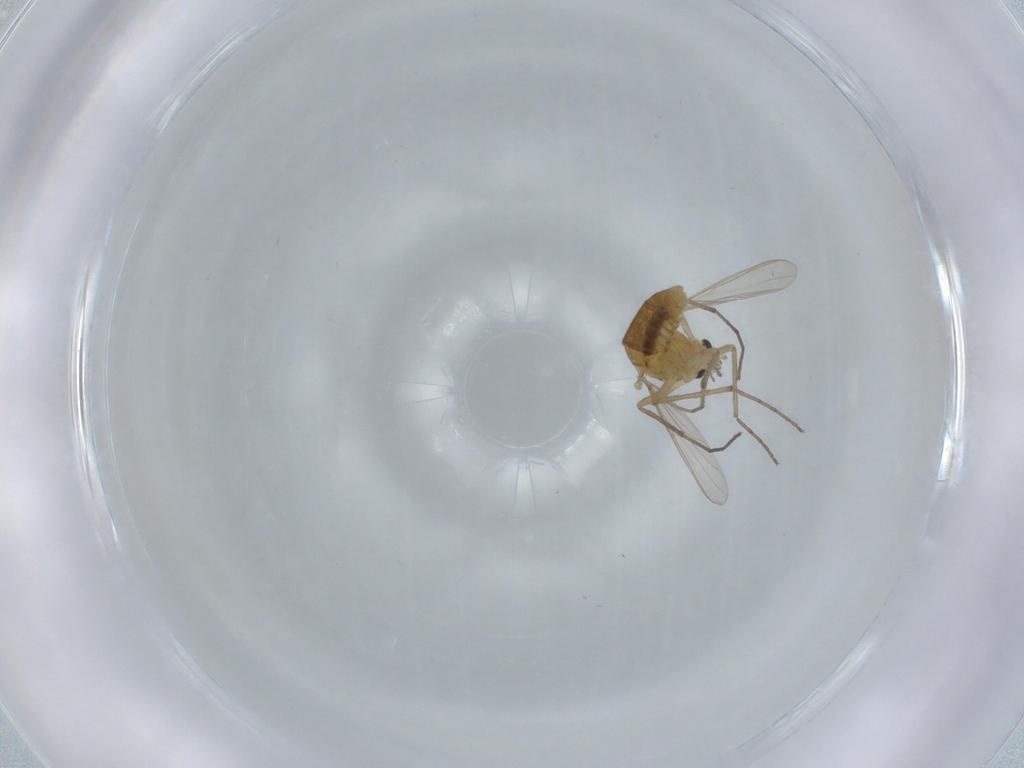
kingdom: Animalia
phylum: Arthropoda
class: Insecta
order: Diptera
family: Chironomidae
